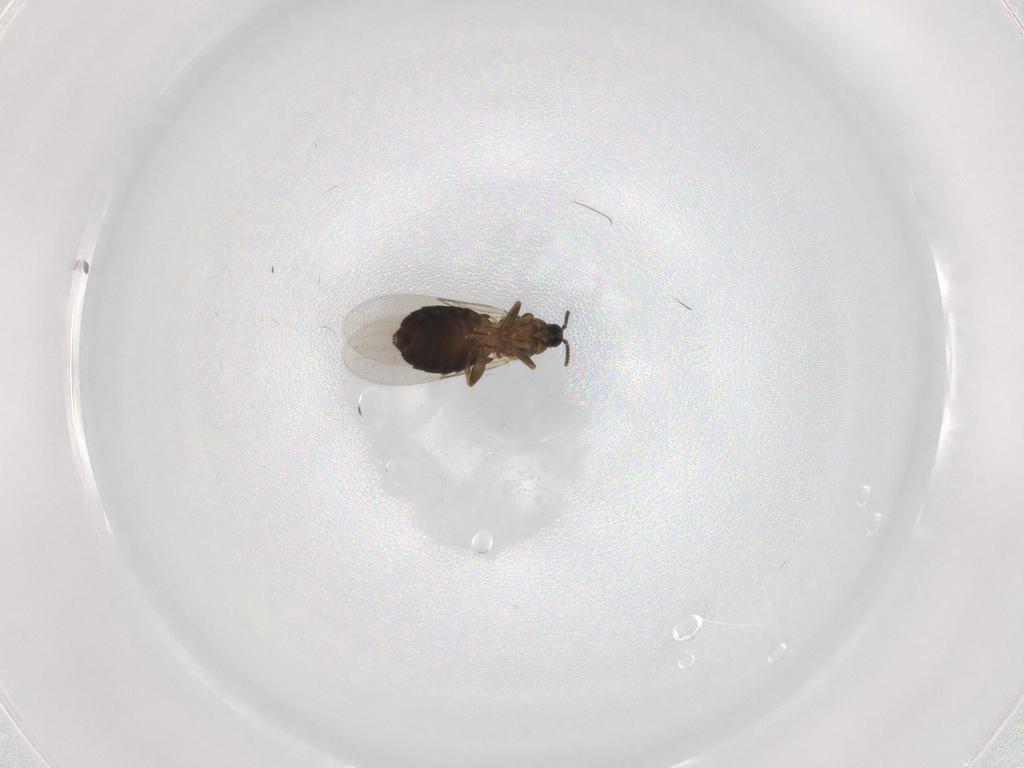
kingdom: Animalia
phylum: Arthropoda
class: Insecta
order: Diptera
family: Scatopsidae
